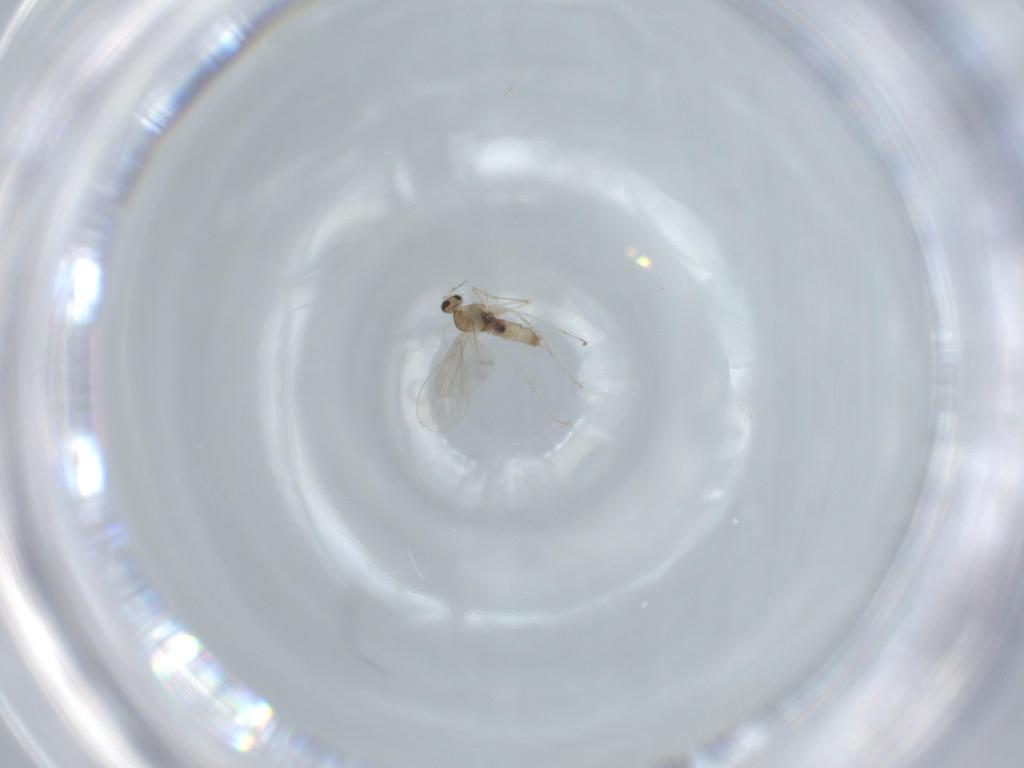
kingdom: Animalia
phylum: Arthropoda
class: Insecta
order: Diptera
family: Cecidomyiidae
